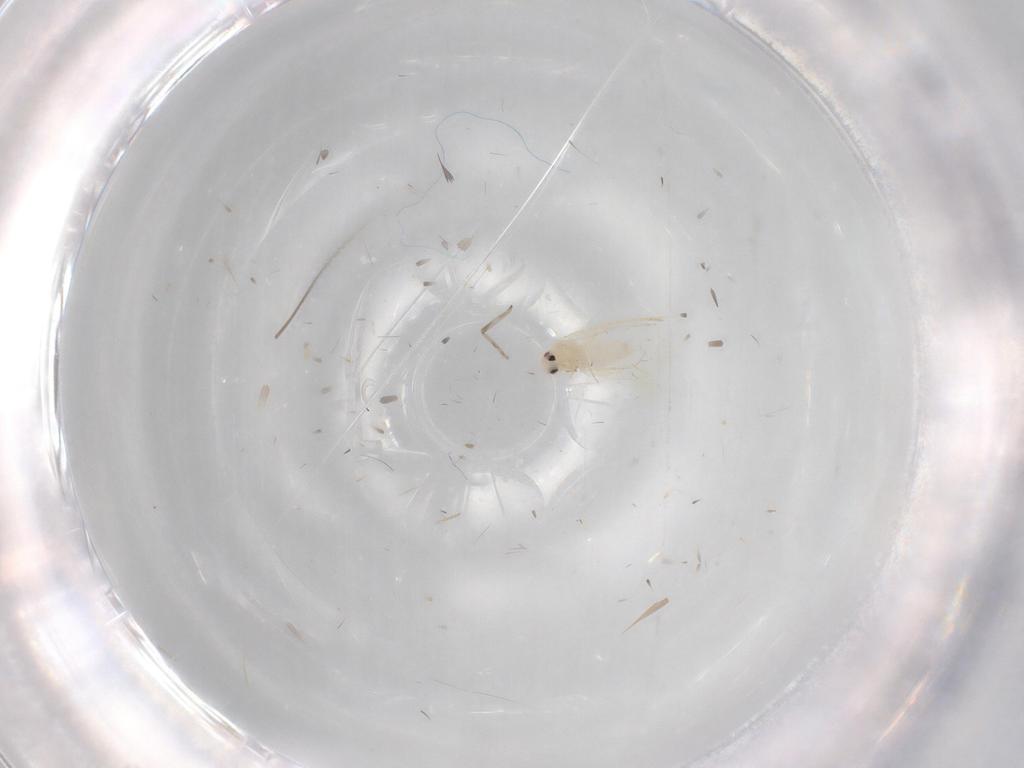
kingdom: Animalia
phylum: Arthropoda
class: Insecta
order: Hemiptera
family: Aleyrodidae
